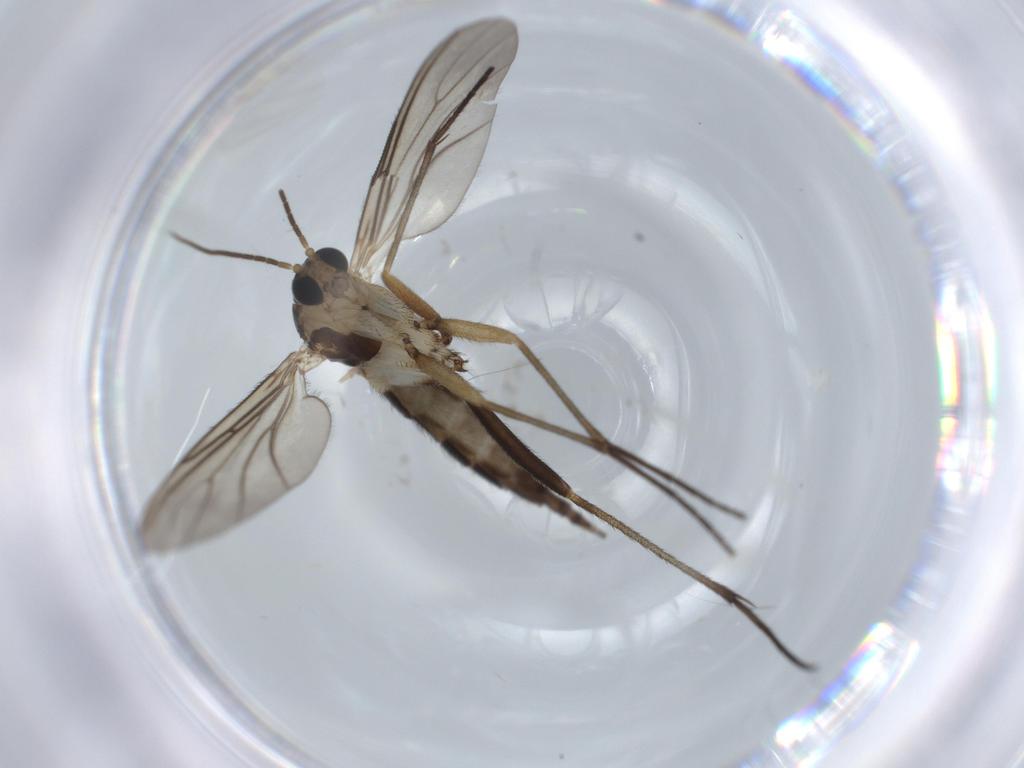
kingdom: Animalia
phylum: Arthropoda
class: Insecta
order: Diptera
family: Sciaridae
